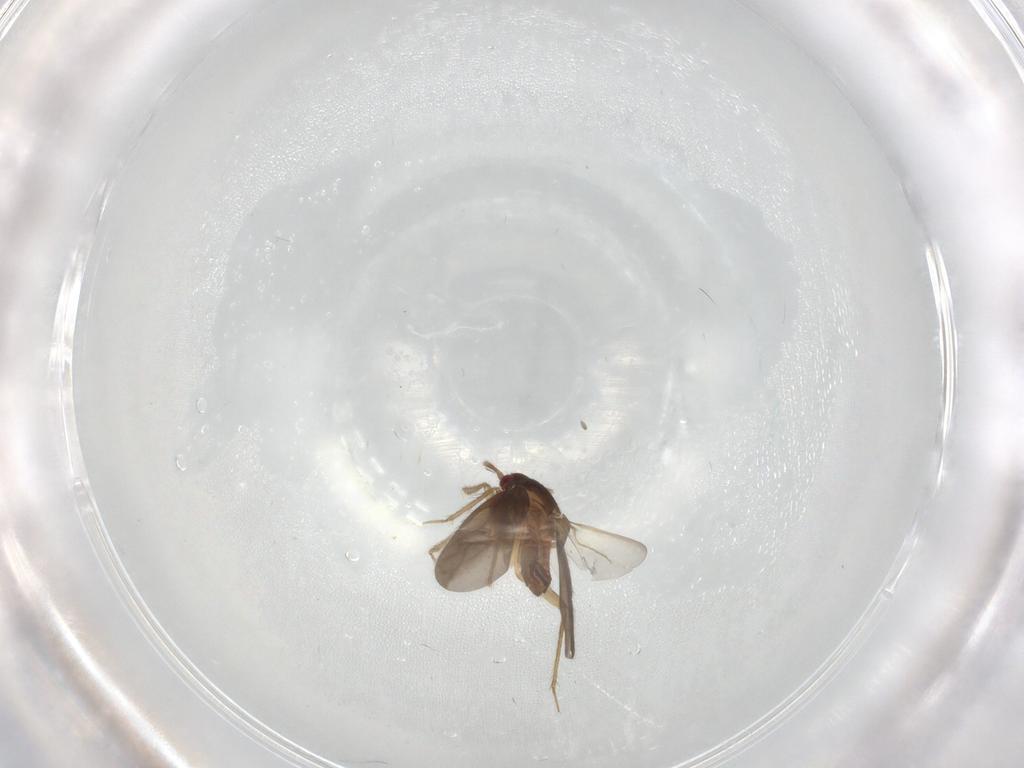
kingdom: Animalia
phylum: Arthropoda
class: Insecta
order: Hemiptera
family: Ceratocombidae
